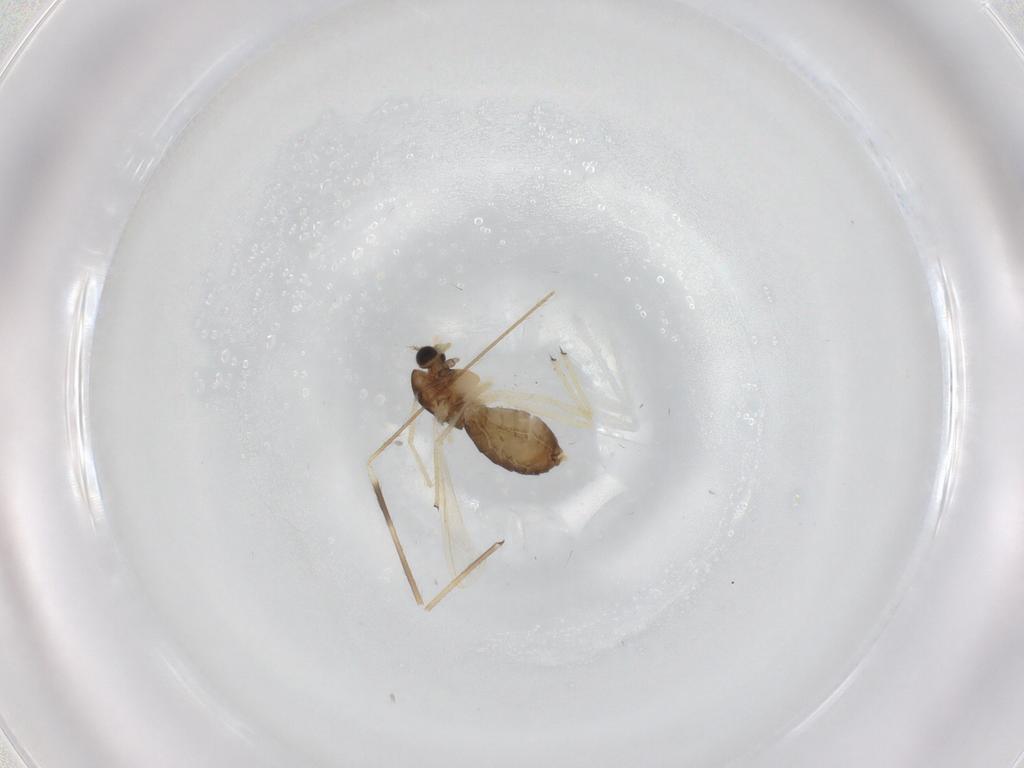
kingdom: Animalia
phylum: Arthropoda
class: Insecta
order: Diptera
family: Chironomidae
